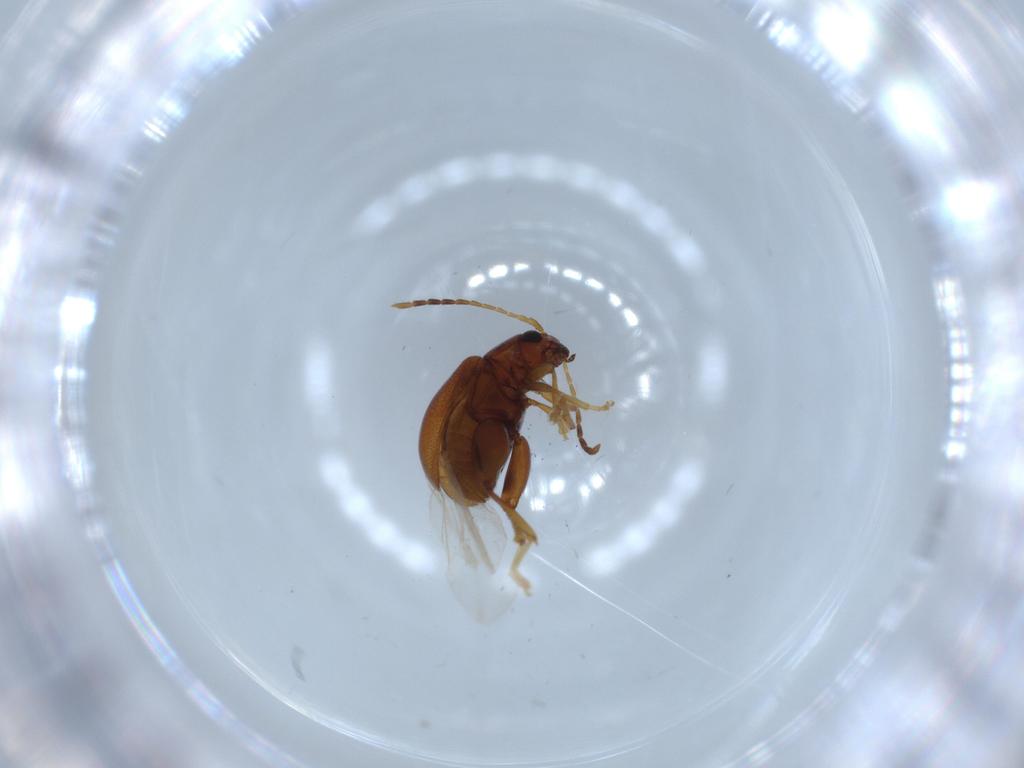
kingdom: Animalia
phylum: Arthropoda
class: Insecta
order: Coleoptera
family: Chrysomelidae
